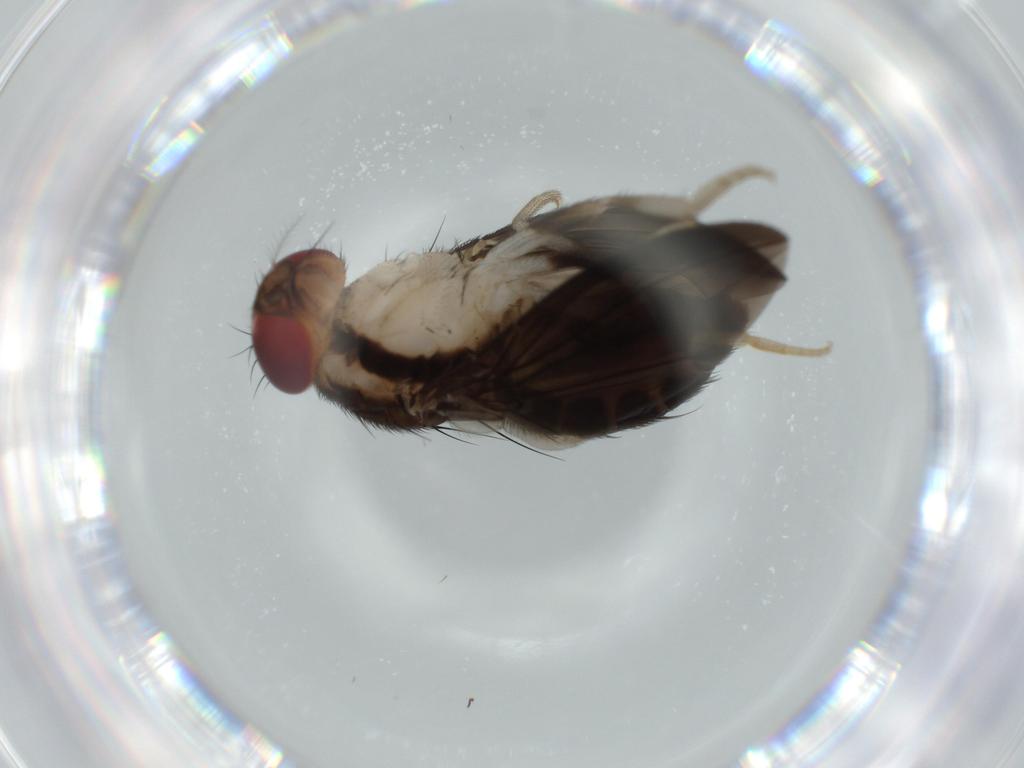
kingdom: Animalia
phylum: Arthropoda
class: Insecta
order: Diptera
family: Drosophilidae
